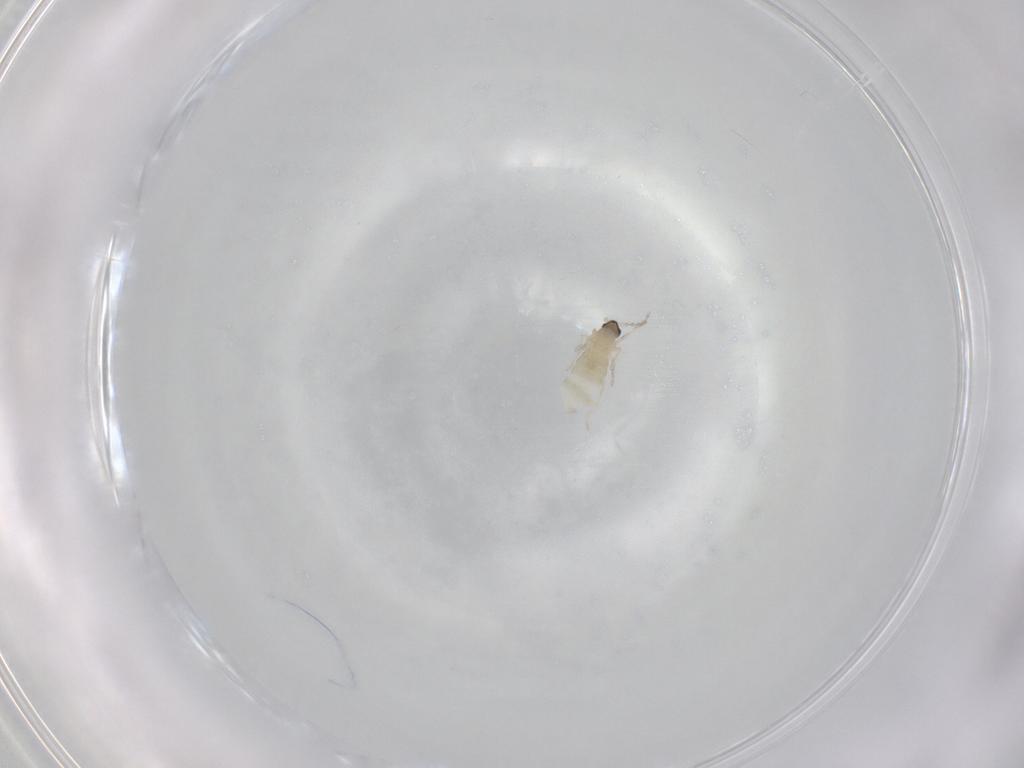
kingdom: Animalia
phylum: Arthropoda
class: Insecta
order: Diptera
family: Cecidomyiidae
